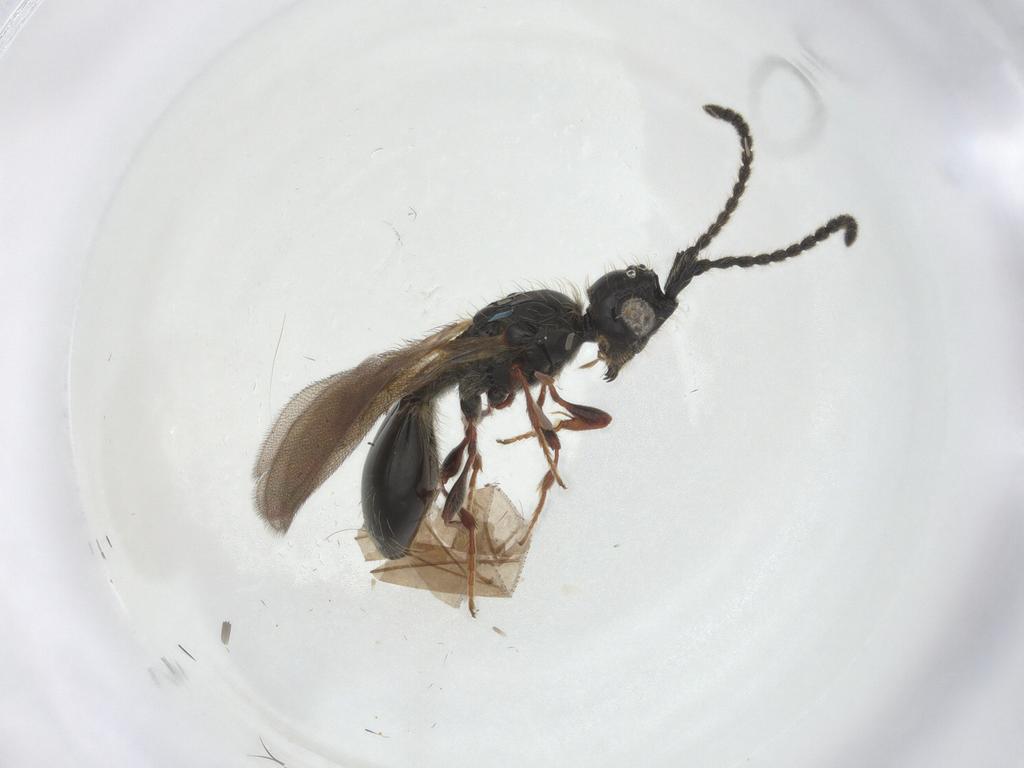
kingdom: Animalia
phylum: Arthropoda
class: Insecta
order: Hymenoptera
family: Diapriidae
